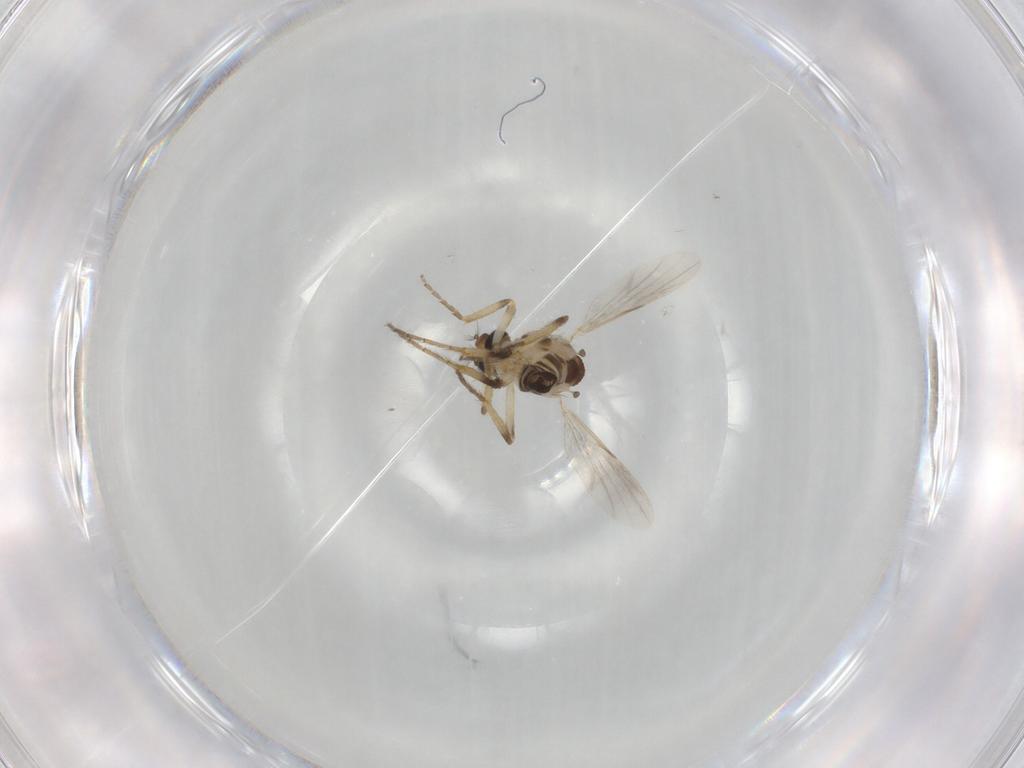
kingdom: Animalia
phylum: Arthropoda
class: Insecta
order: Diptera
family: Ceratopogonidae
